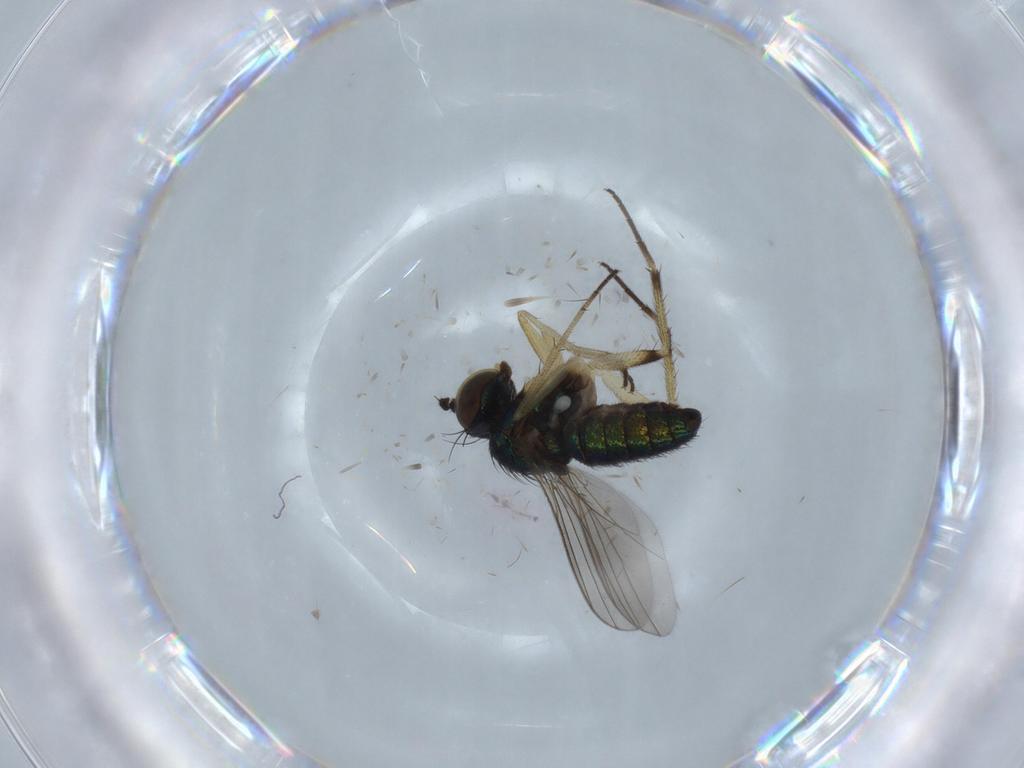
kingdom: Animalia
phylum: Arthropoda
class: Insecta
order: Diptera
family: Dolichopodidae
